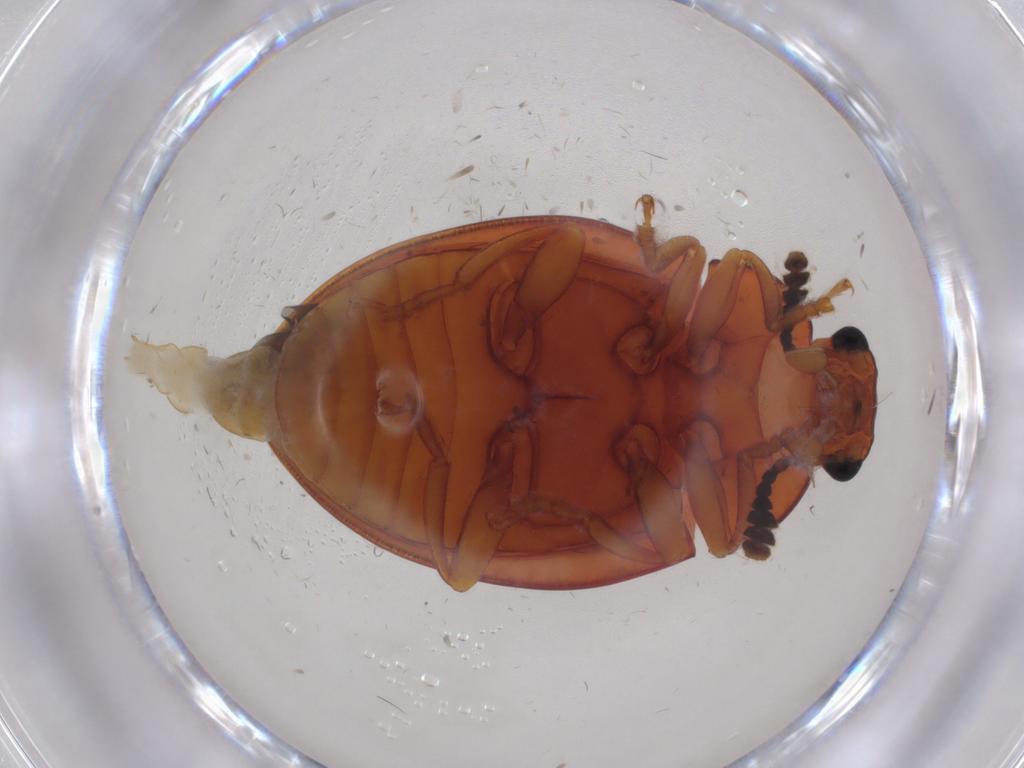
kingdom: Animalia
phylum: Arthropoda
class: Insecta
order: Coleoptera
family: Erotylidae
